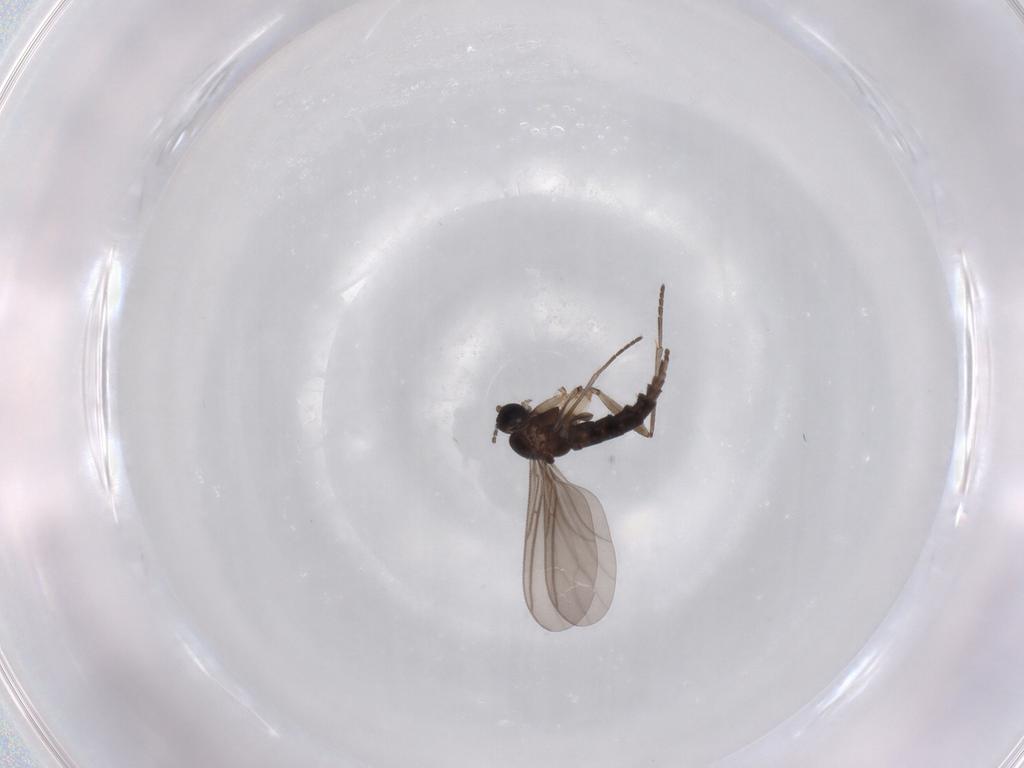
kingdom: Animalia
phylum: Arthropoda
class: Insecta
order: Diptera
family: Sciaridae
